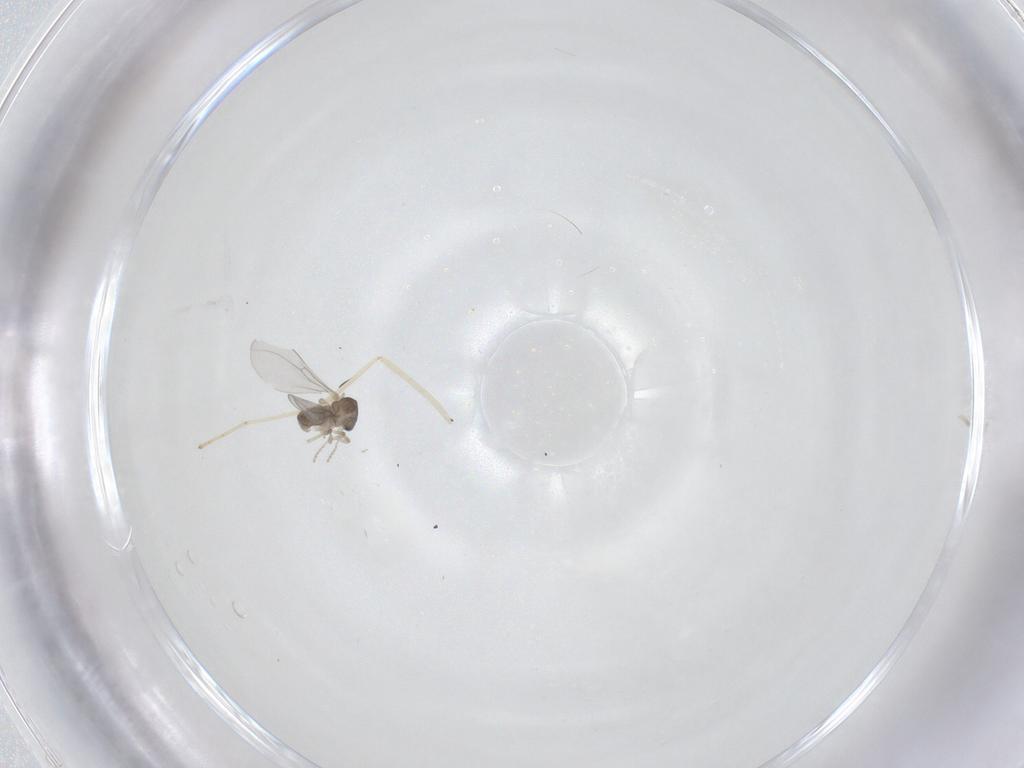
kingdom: Animalia
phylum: Arthropoda
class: Insecta
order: Diptera
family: Cecidomyiidae
